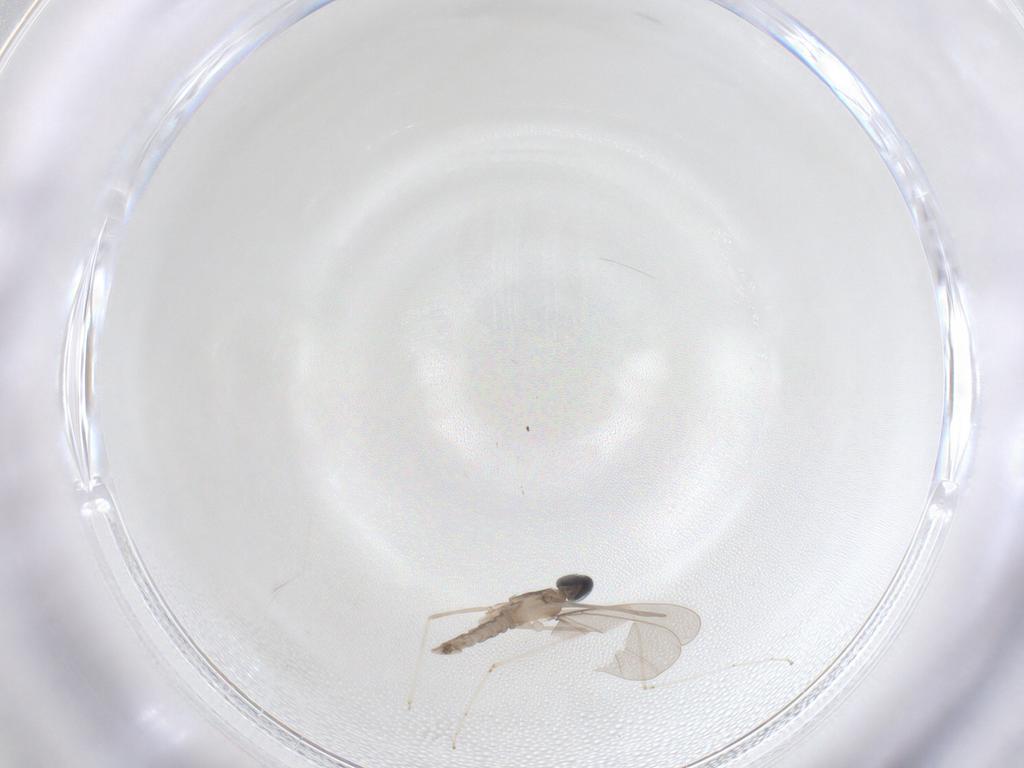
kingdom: Animalia
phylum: Arthropoda
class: Insecta
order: Diptera
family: Cecidomyiidae
